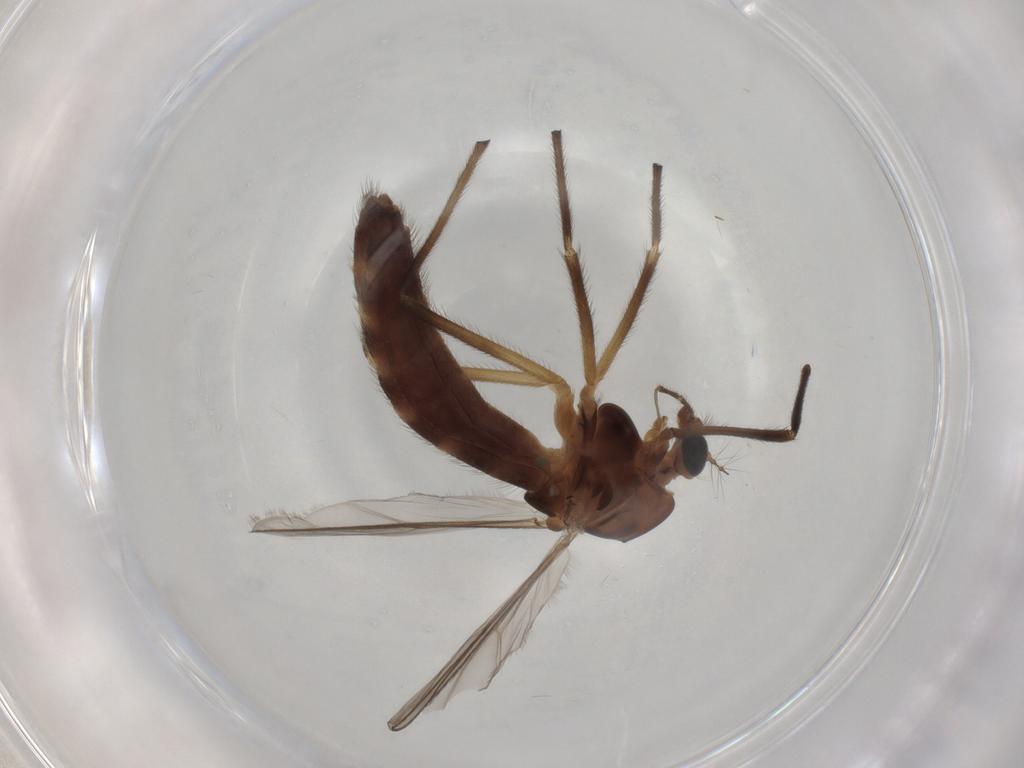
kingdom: Animalia
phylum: Arthropoda
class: Insecta
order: Diptera
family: Chironomidae
